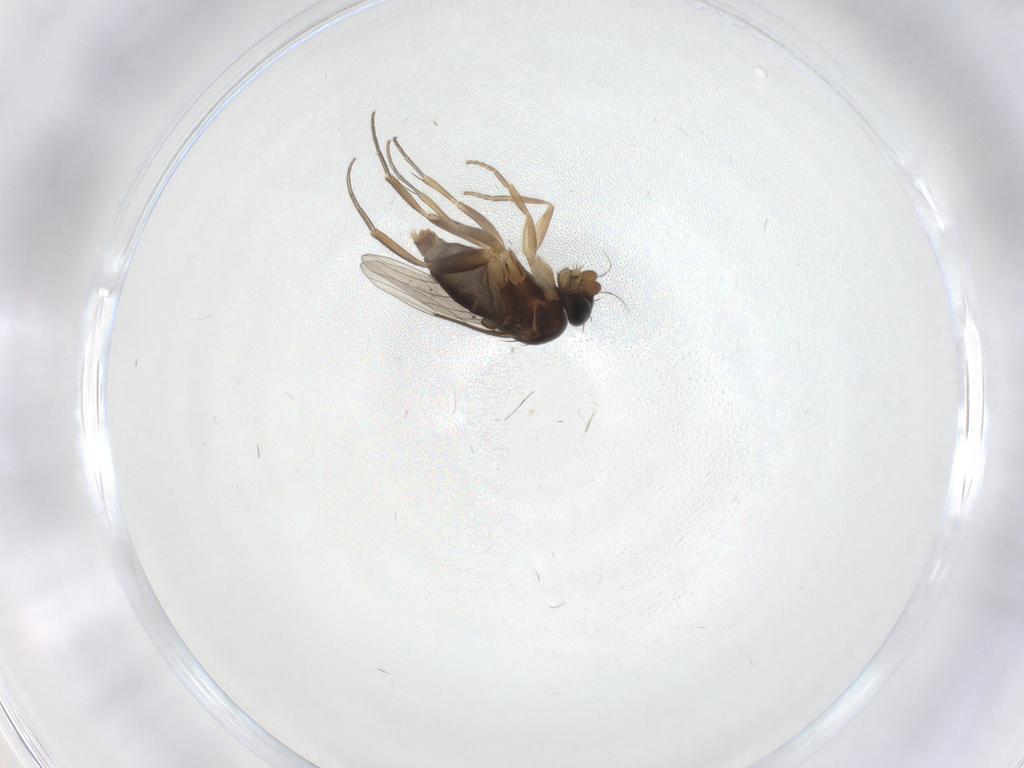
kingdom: Animalia
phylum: Arthropoda
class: Insecta
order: Diptera
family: Phoridae
